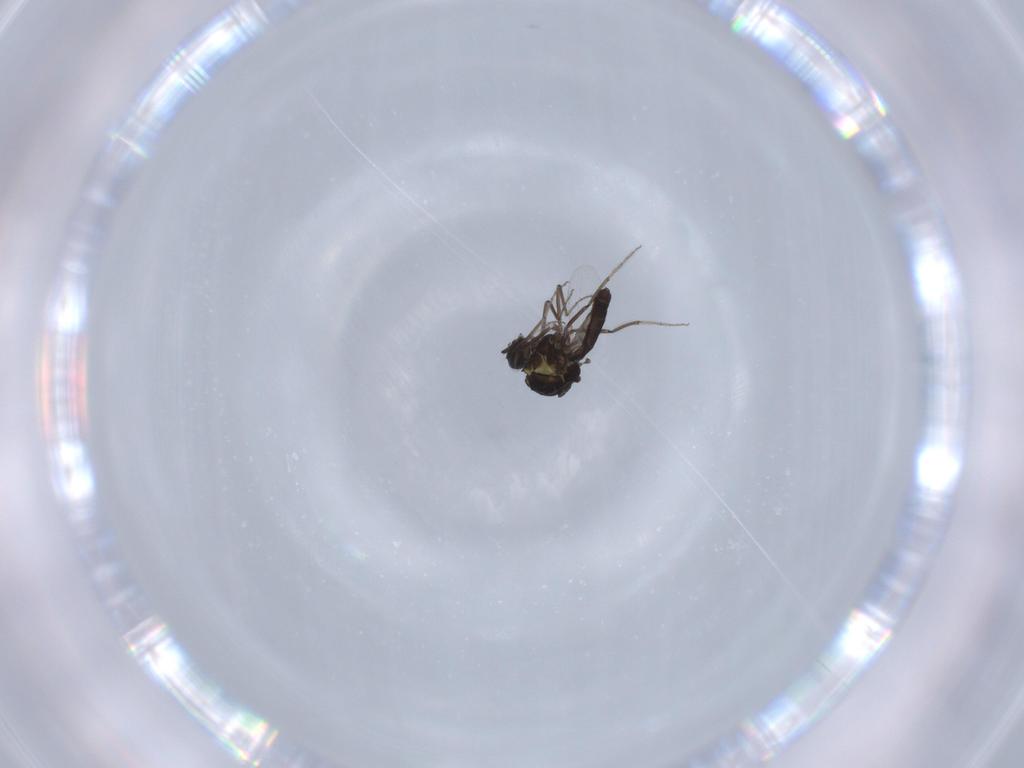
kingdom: Animalia
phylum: Arthropoda
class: Insecta
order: Diptera
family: Ceratopogonidae
